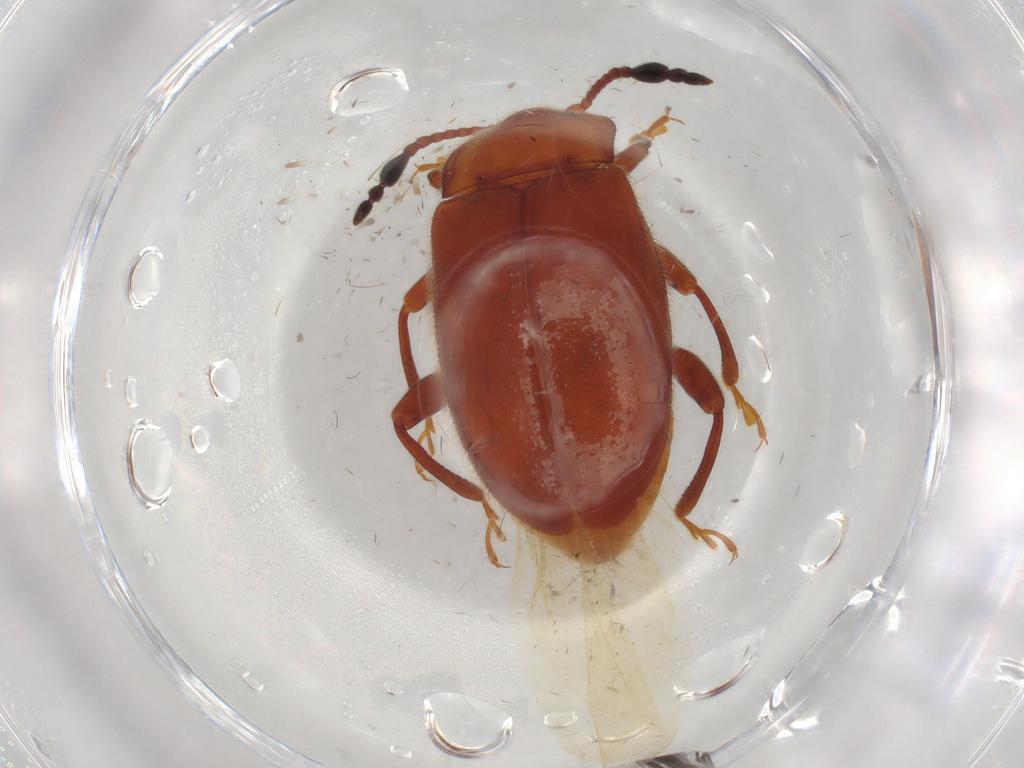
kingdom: Animalia
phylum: Arthropoda
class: Insecta
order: Coleoptera
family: Endomychidae
